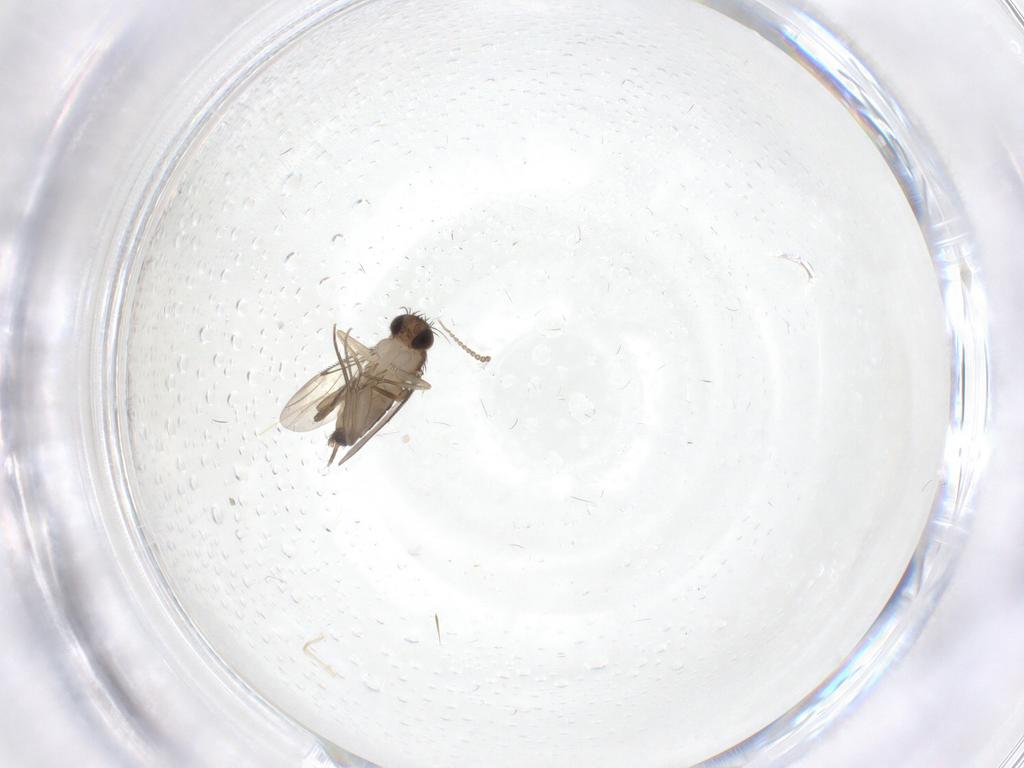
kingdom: Animalia
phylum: Arthropoda
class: Insecta
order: Diptera
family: Phoridae
